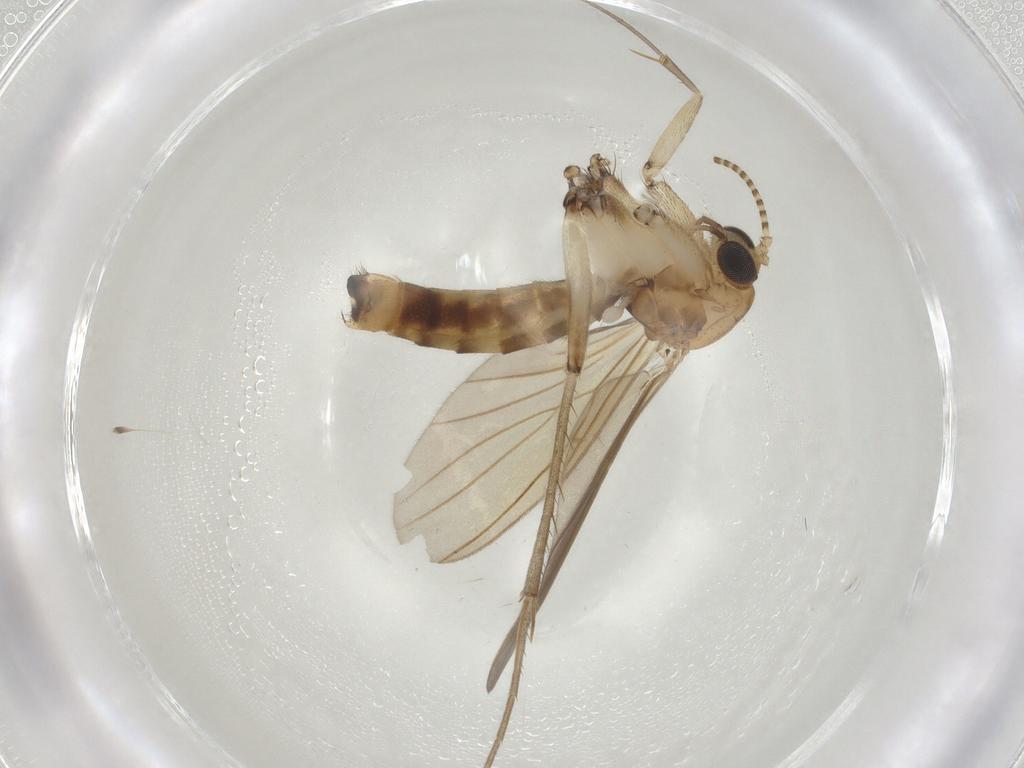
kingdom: Animalia
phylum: Arthropoda
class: Insecta
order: Diptera
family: Mycetophilidae
